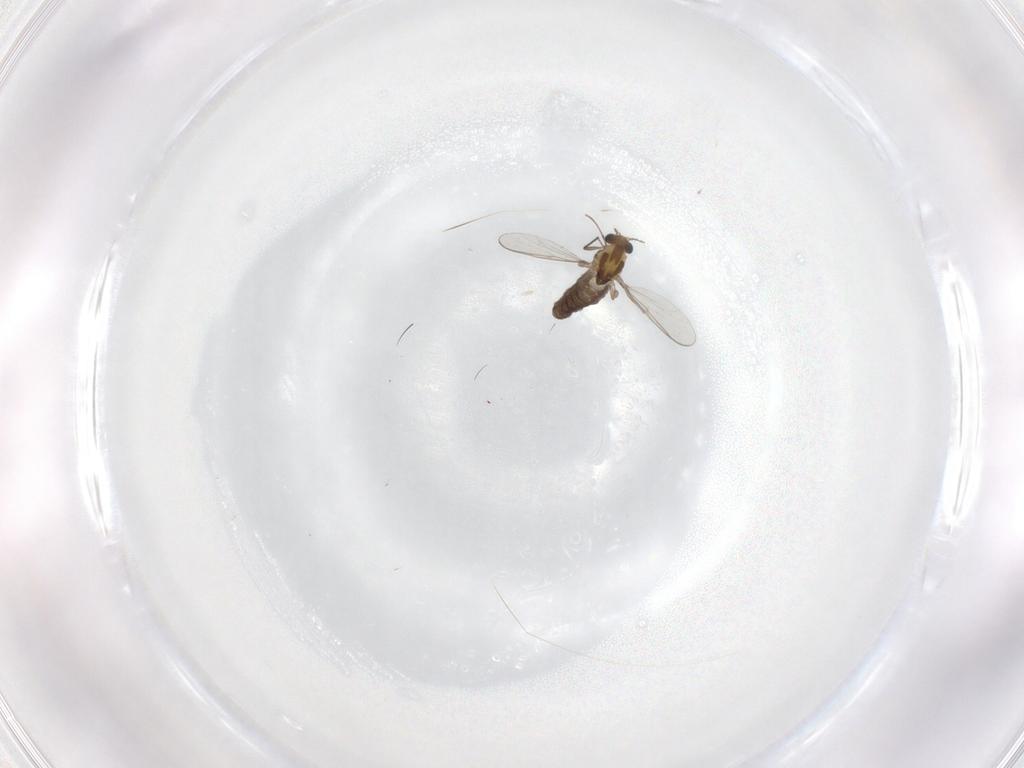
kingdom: Animalia
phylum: Arthropoda
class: Insecta
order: Diptera
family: Tipulidae
